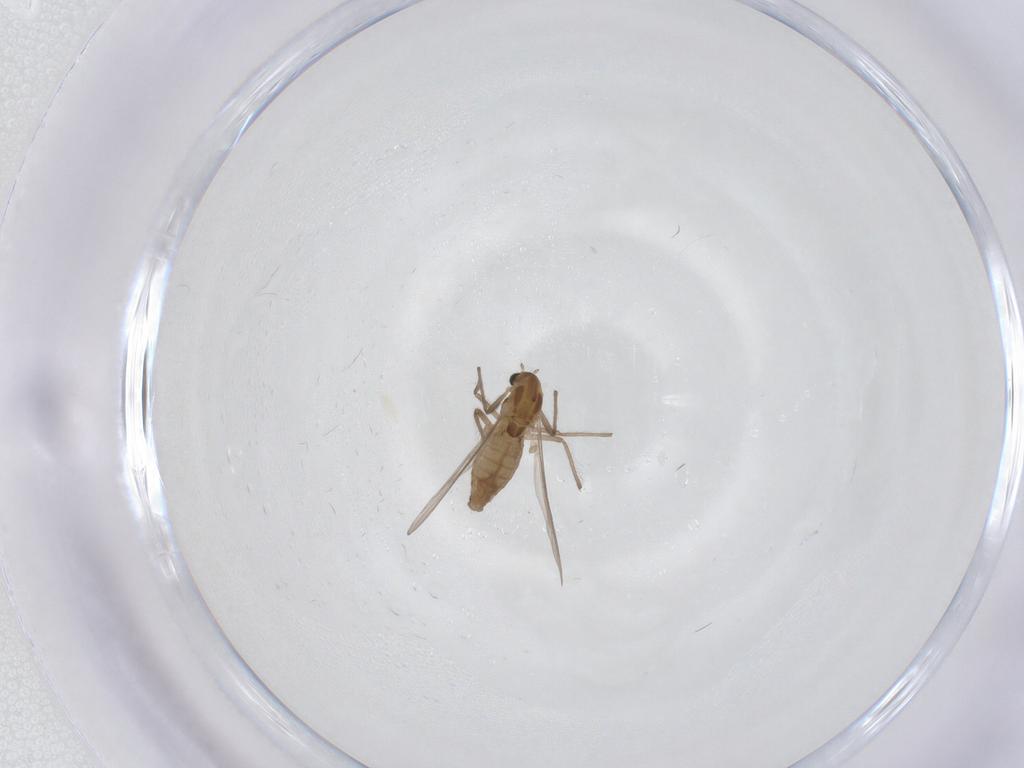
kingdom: Animalia
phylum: Arthropoda
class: Insecta
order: Diptera
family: Chironomidae
